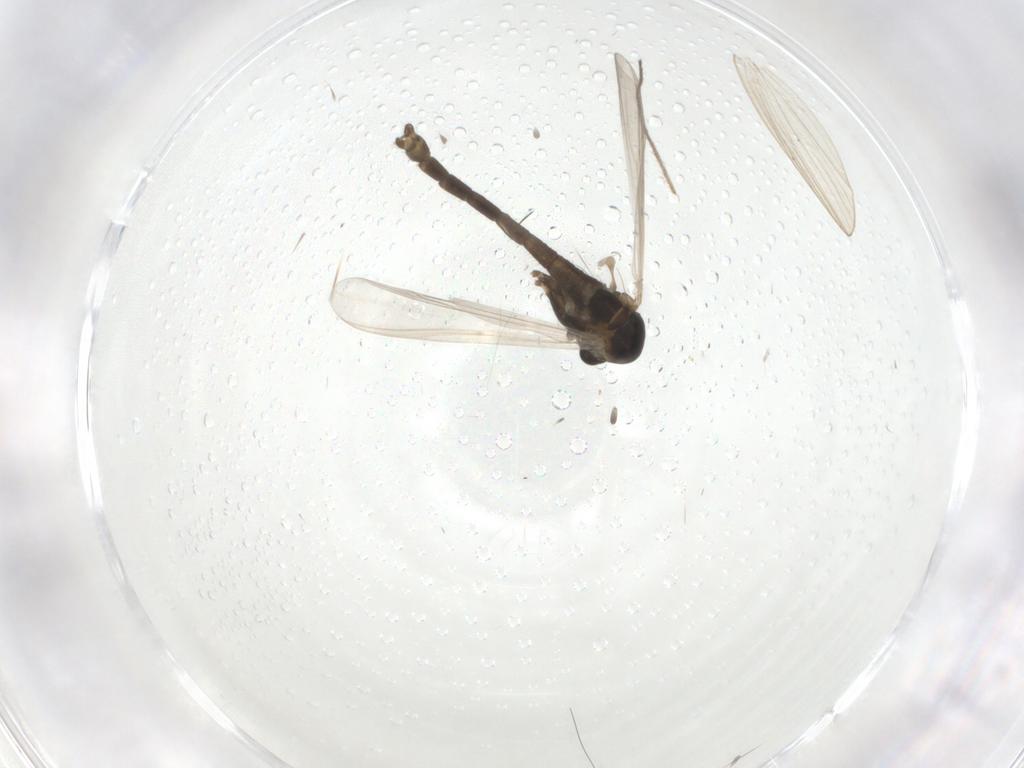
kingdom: Animalia
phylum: Arthropoda
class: Insecta
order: Diptera
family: Chironomidae
